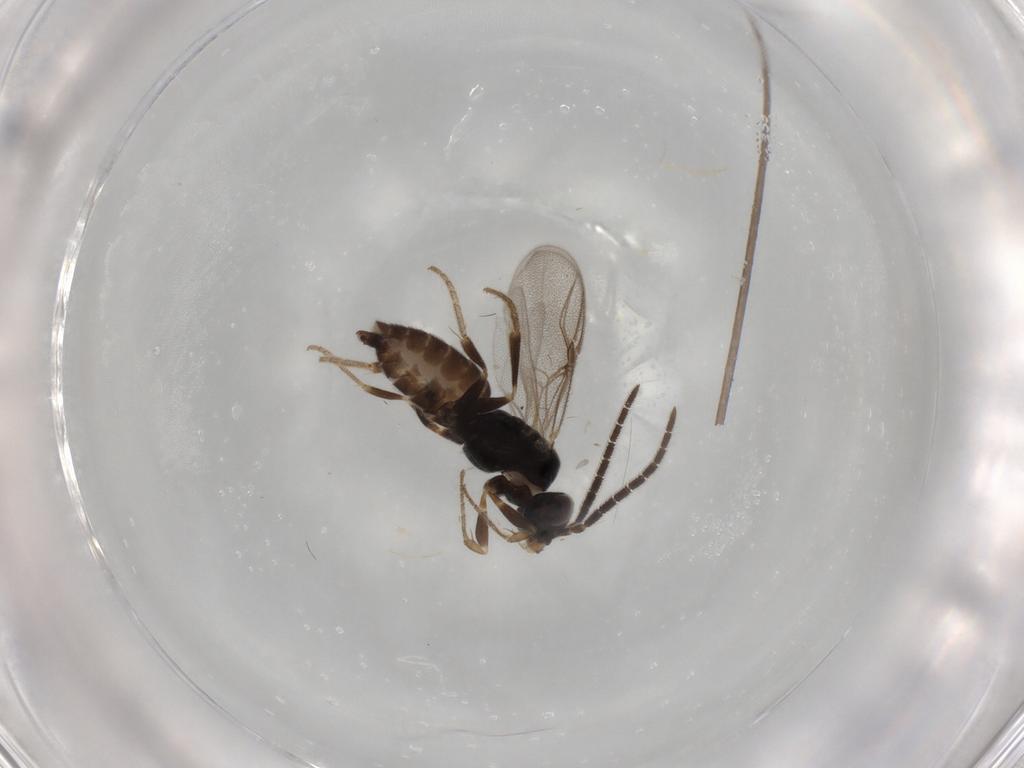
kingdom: Animalia
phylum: Arthropoda
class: Insecta
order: Hymenoptera
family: Dryinidae
